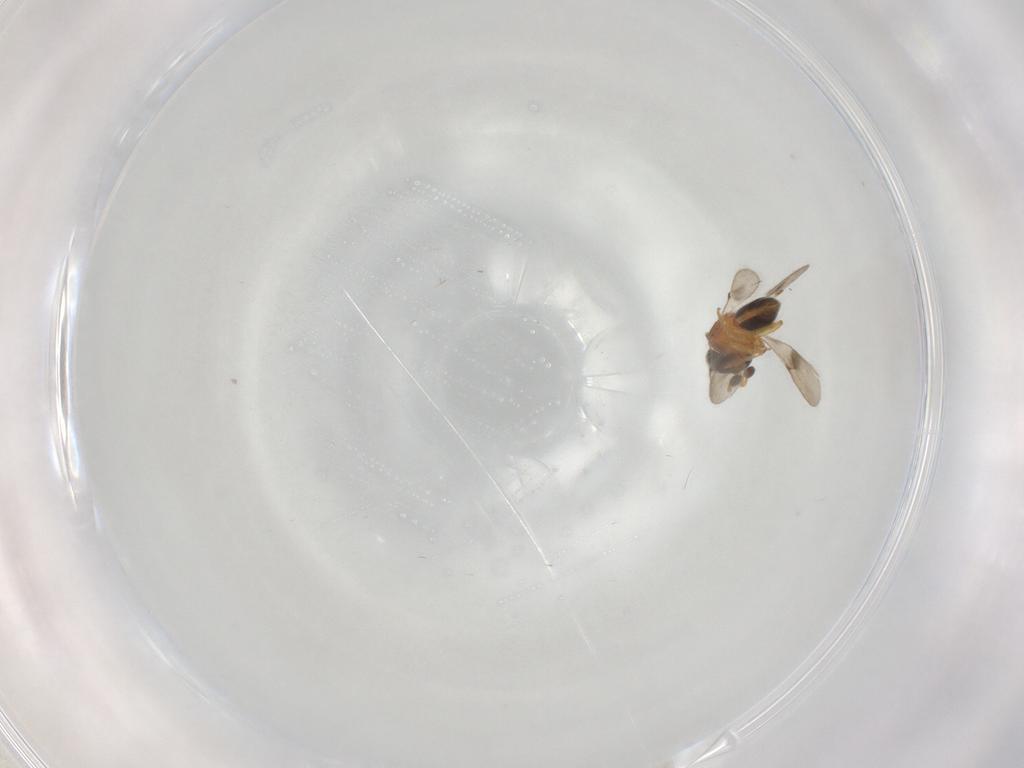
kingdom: Animalia
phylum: Arthropoda
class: Insecta
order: Hymenoptera
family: Scelionidae
